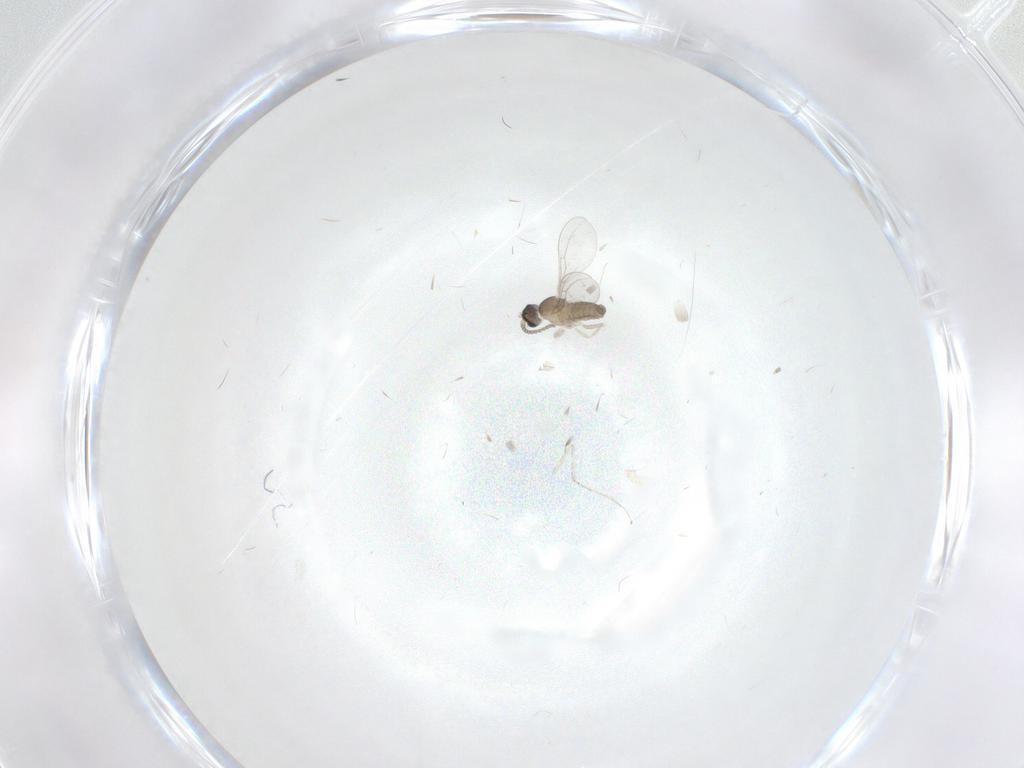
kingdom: Animalia
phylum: Arthropoda
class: Insecta
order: Diptera
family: Cecidomyiidae
